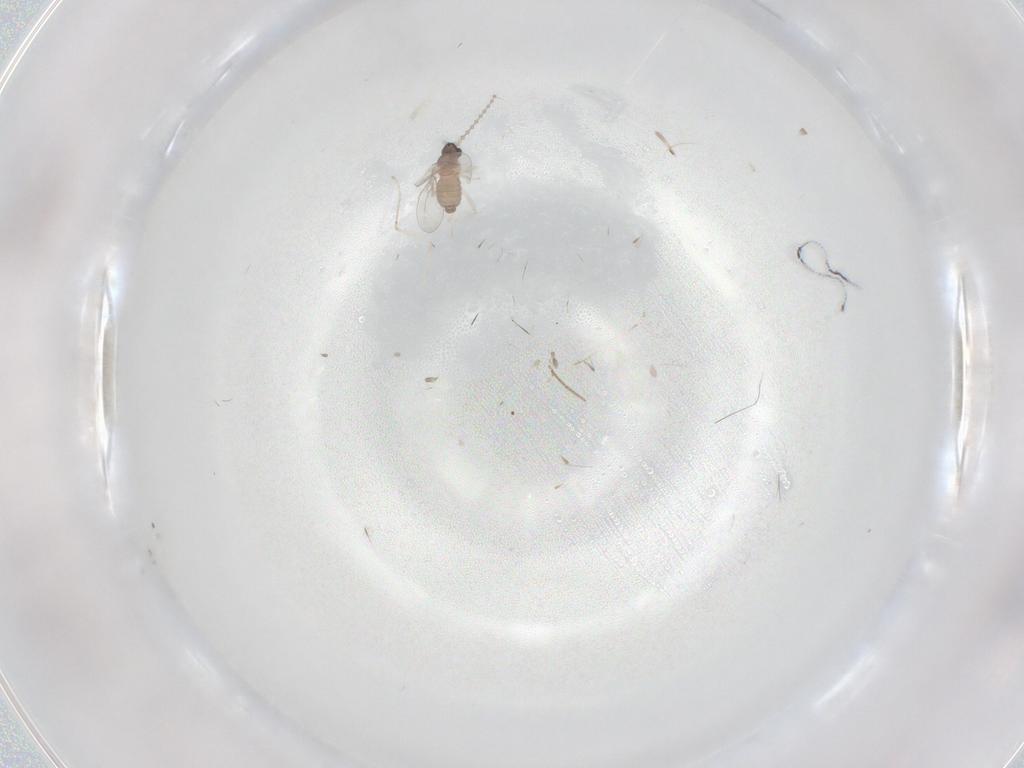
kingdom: Animalia
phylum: Arthropoda
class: Insecta
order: Diptera
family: Cecidomyiidae
